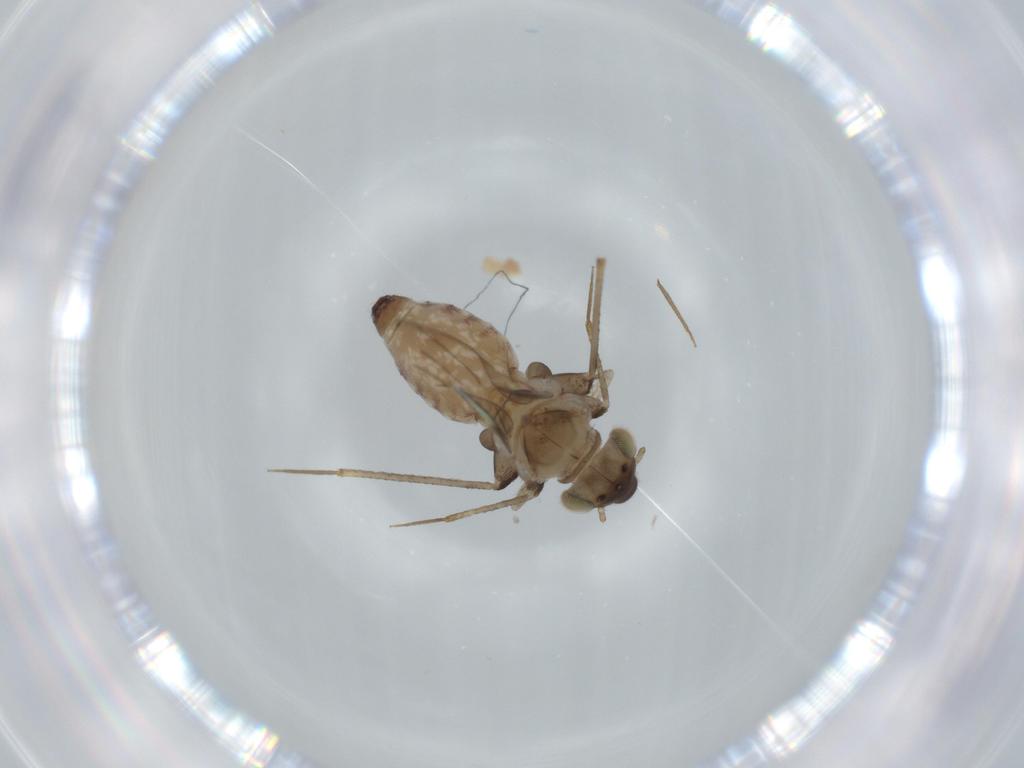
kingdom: Animalia
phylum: Arthropoda
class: Insecta
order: Psocodea
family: Lepidopsocidae
